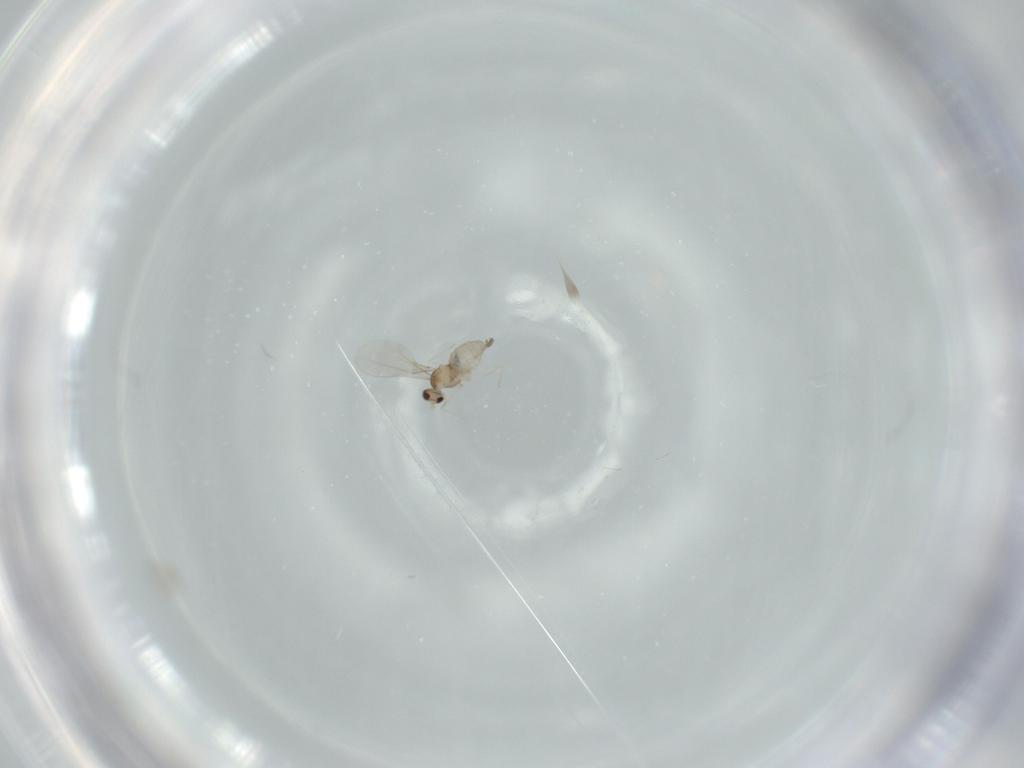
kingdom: Animalia
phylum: Arthropoda
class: Insecta
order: Diptera
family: Cecidomyiidae
